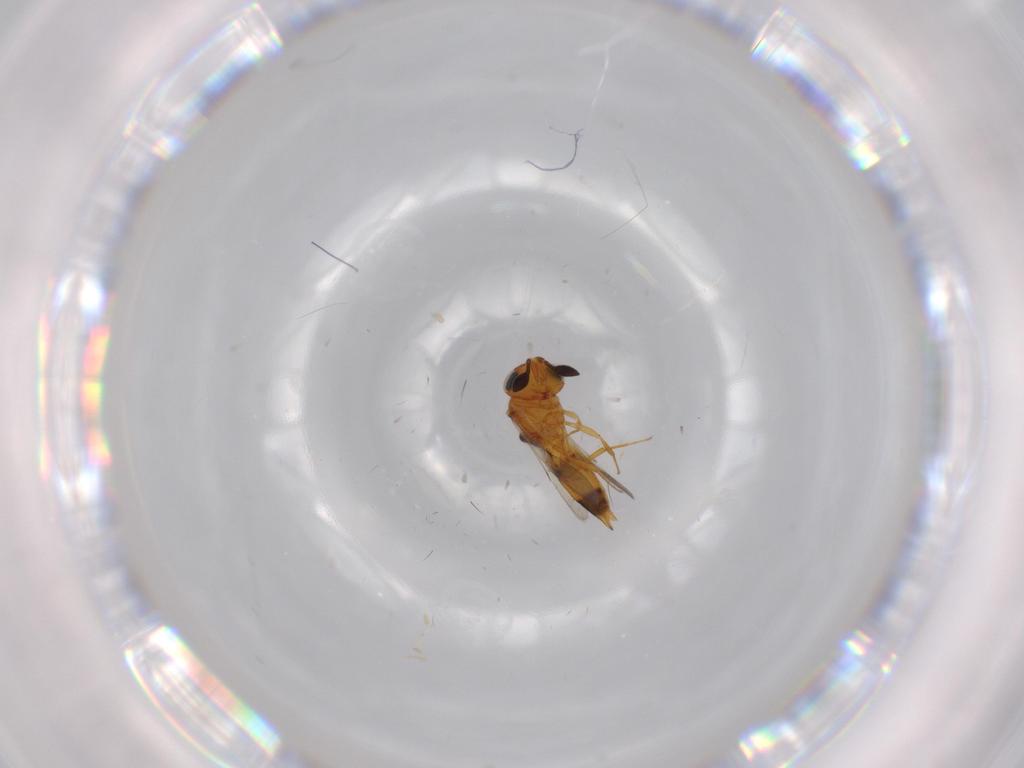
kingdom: Animalia
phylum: Arthropoda
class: Insecta
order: Hymenoptera
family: Scelionidae
